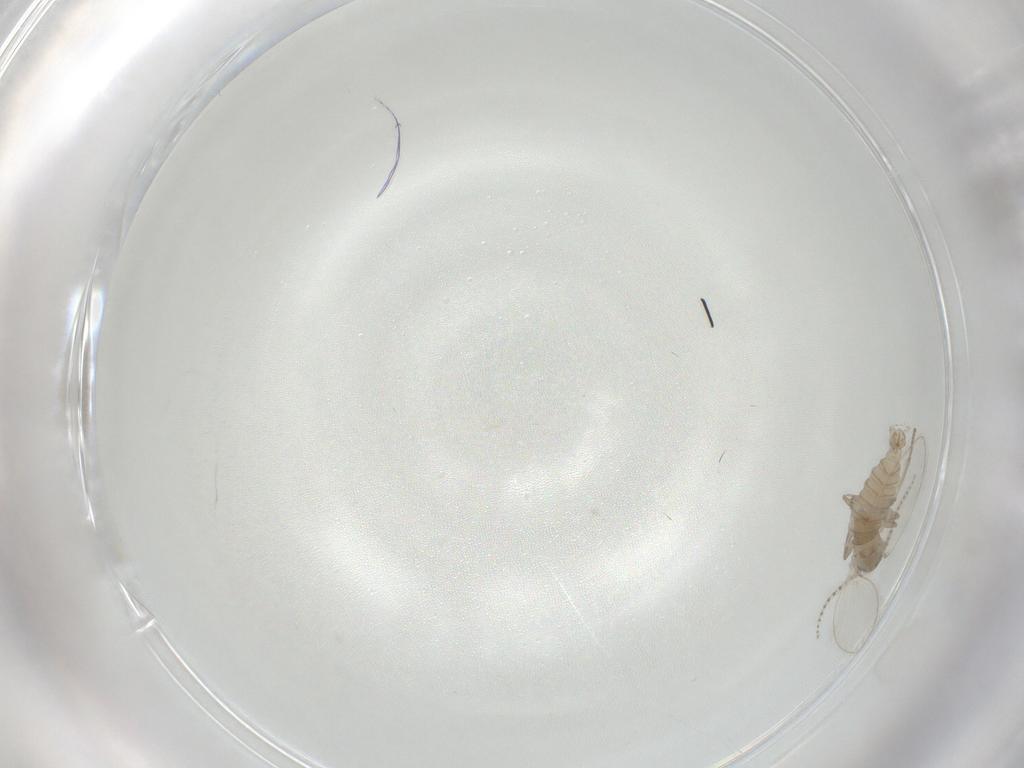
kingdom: Animalia
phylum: Arthropoda
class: Insecta
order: Diptera
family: Psychodidae
